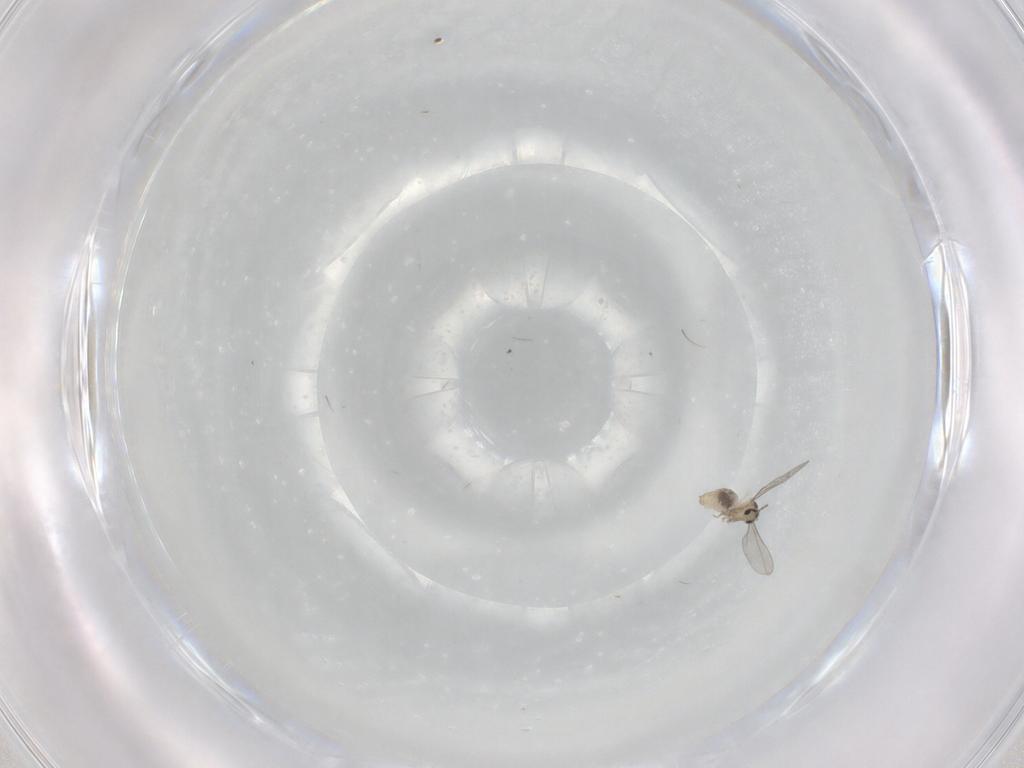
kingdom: Animalia
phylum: Arthropoda
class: Insecta
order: Diptera
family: Cecidomyiidae
